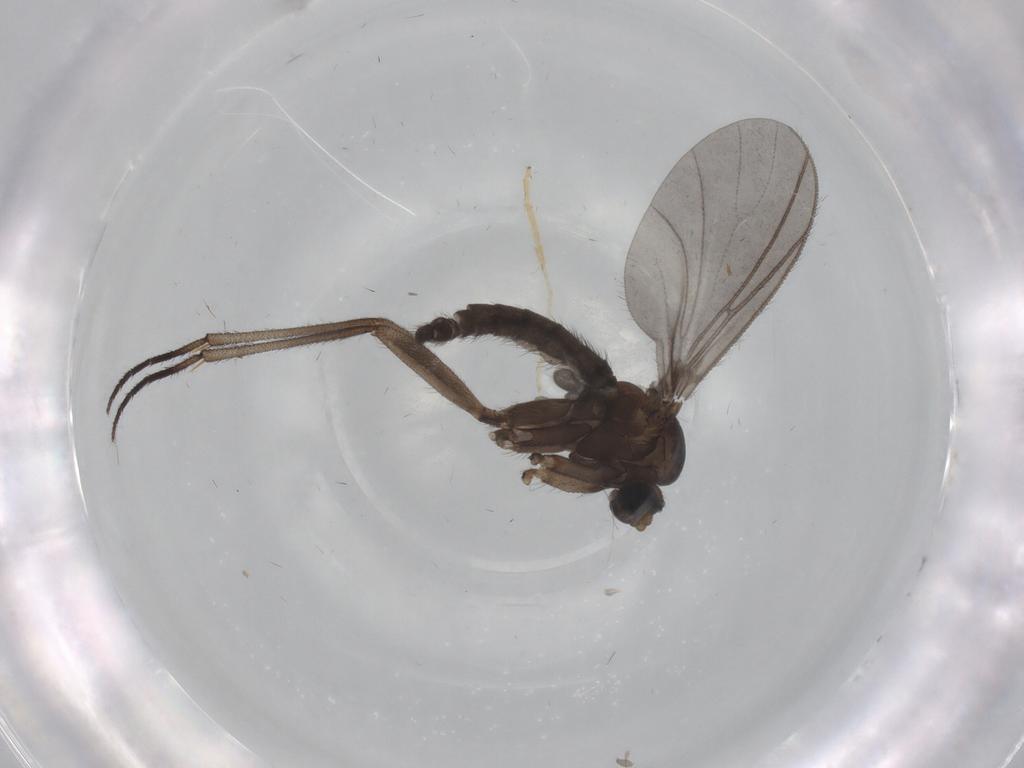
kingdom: Animalia
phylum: Arthropoda
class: Insecta
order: Diptera
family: Sciaridae
